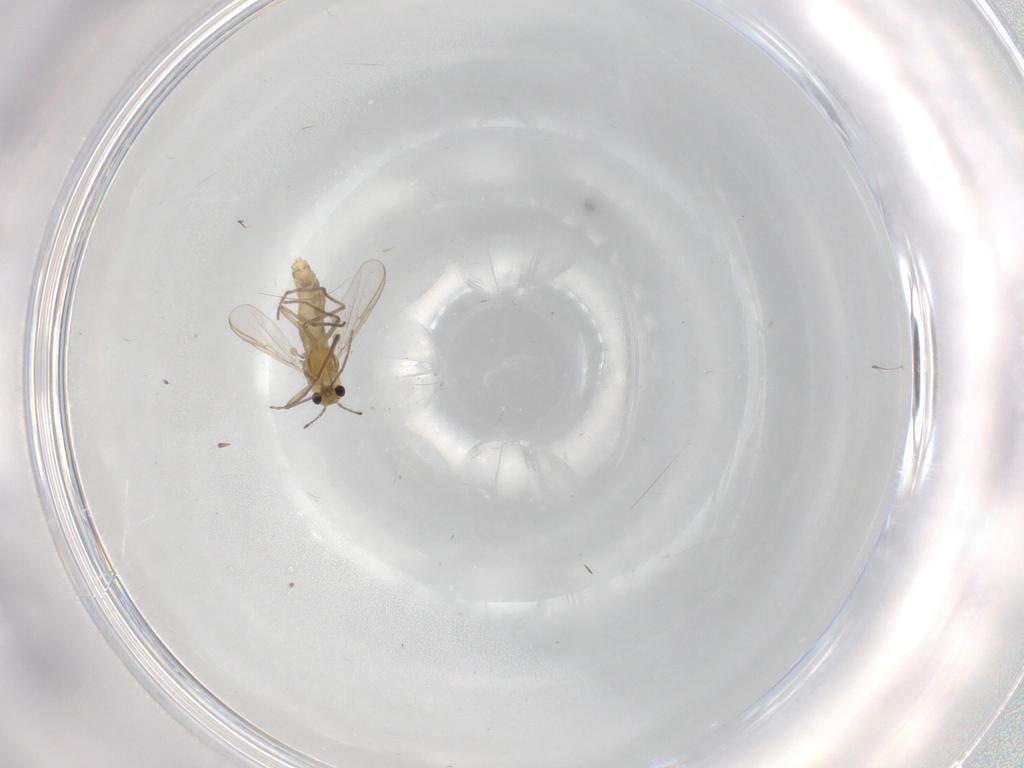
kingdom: Animalia
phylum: Arthropoda
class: Insecta
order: Diptera
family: Chironomidae
